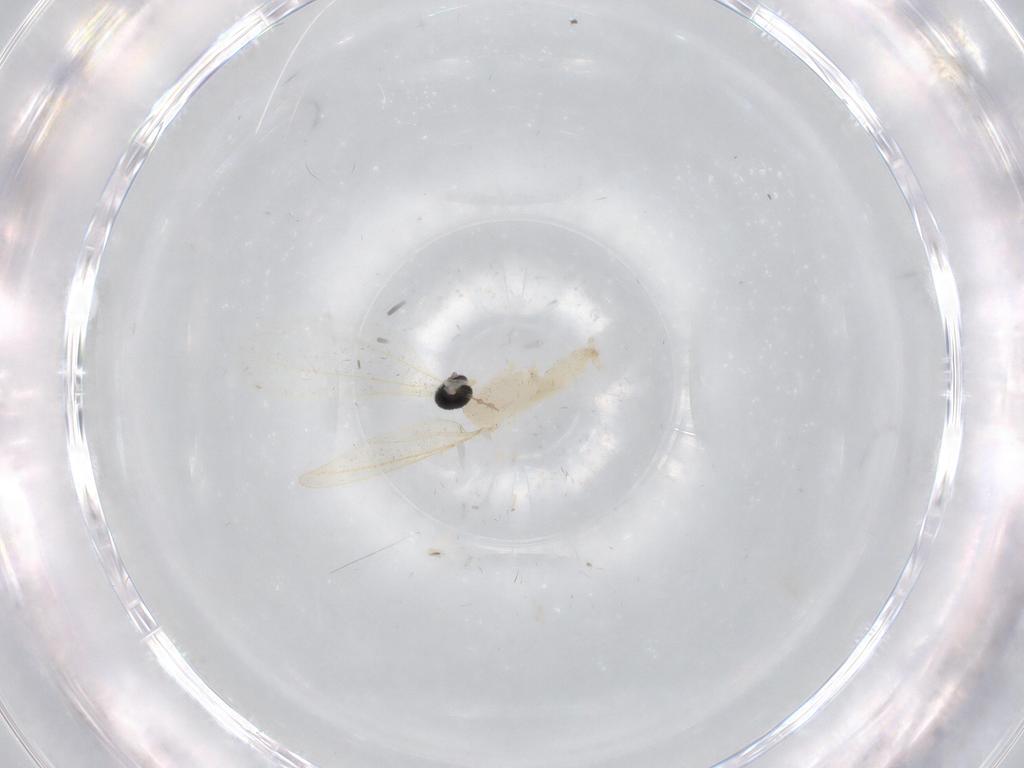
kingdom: Animalia
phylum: Arthropoda
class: Insecta
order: Diptera
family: Cecidomyiidae
